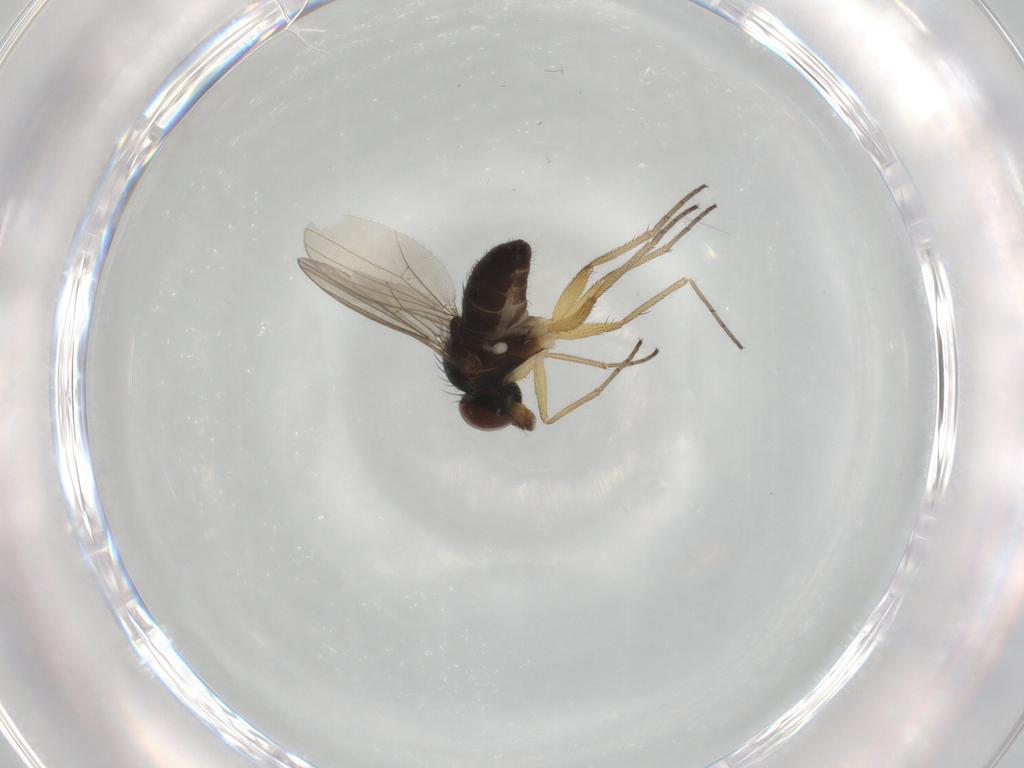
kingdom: Animalia
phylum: Arthropoda
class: Insecta
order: Diptera
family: Dolichopodidae
